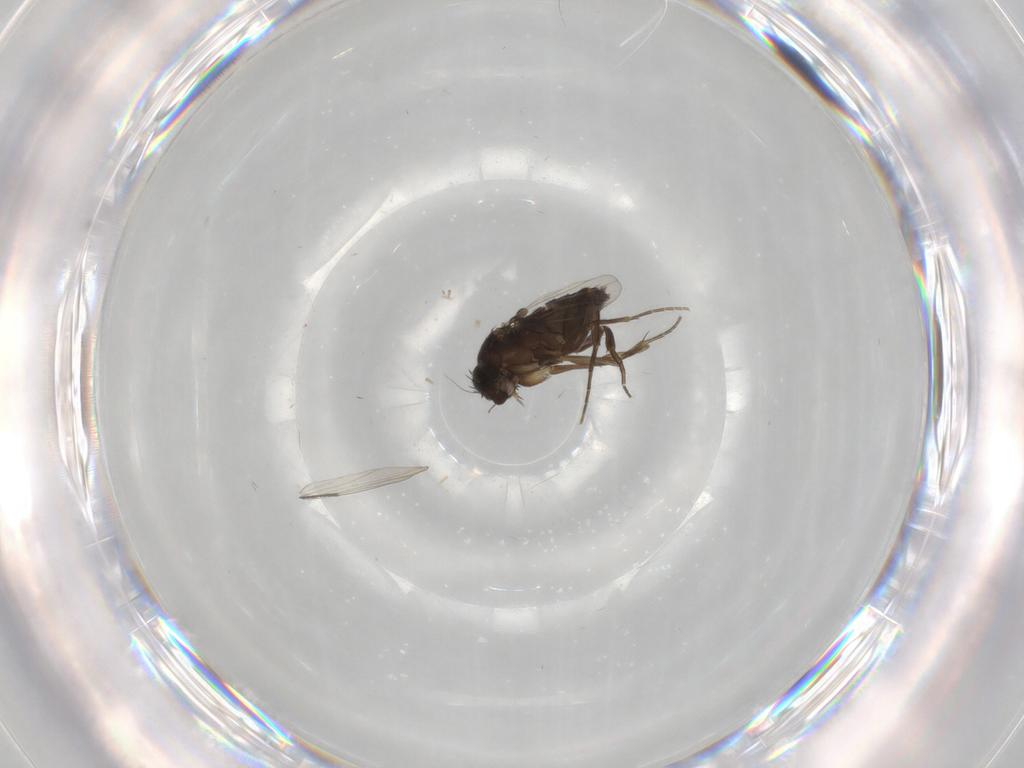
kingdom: Animalia
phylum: Arthropoda
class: Insecta
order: Diptera
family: Phoridae
